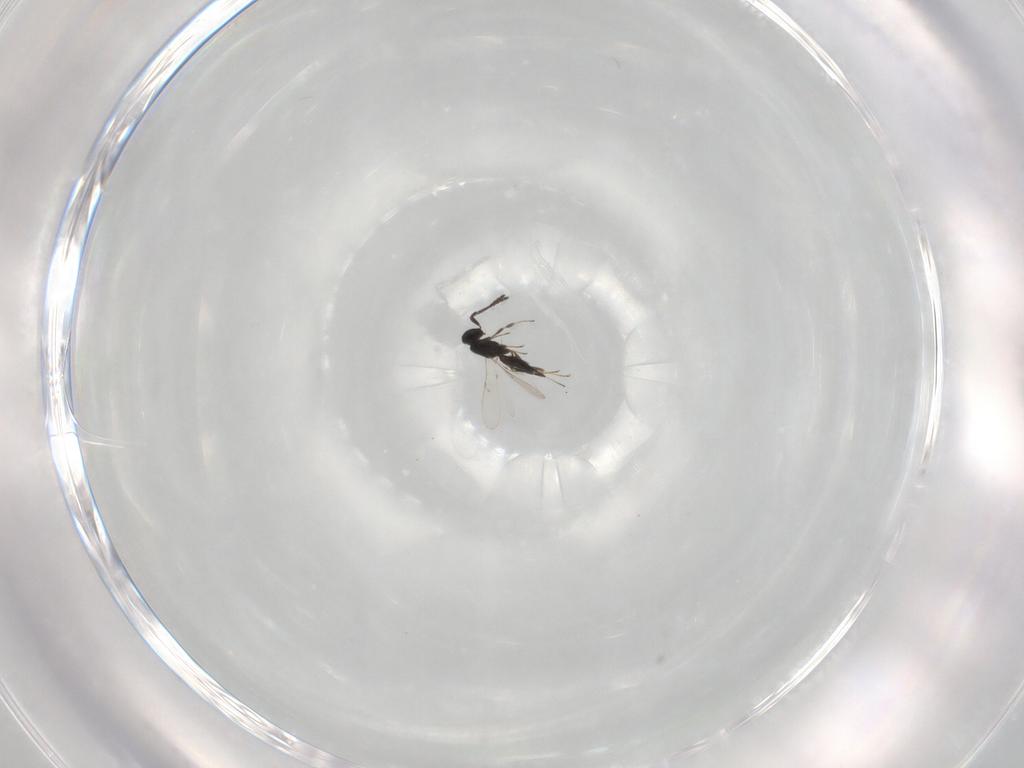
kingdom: Animalia
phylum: Arthropoda
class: Insecta
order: Hymenoptera
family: Scelionidae
